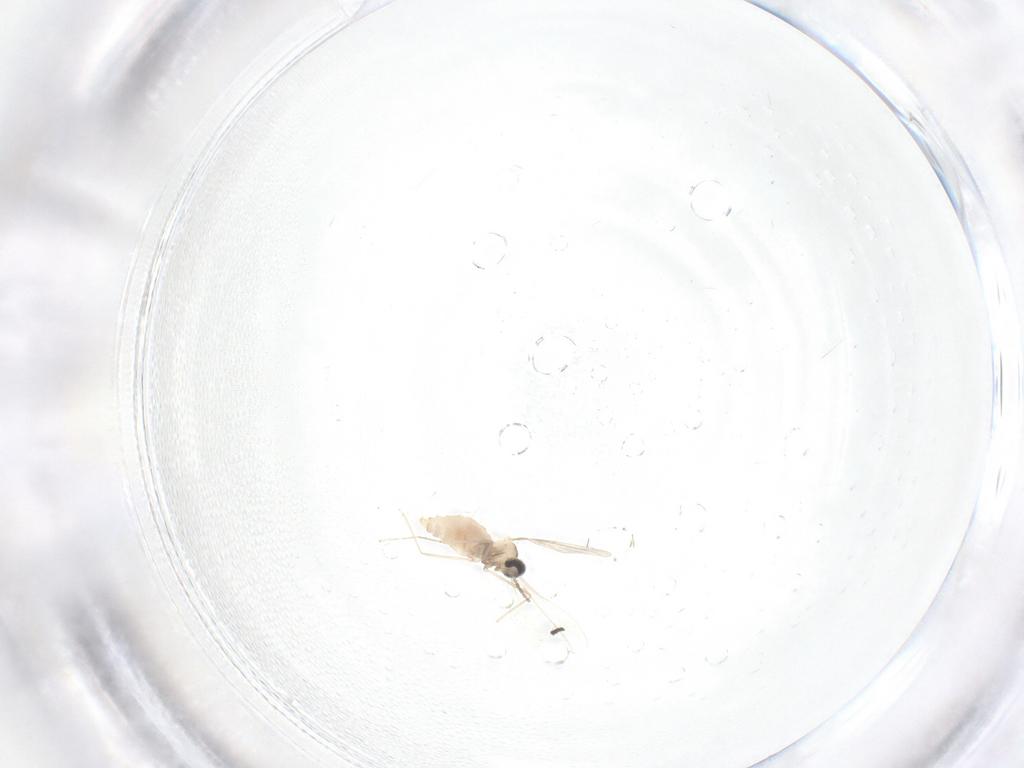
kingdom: Animalia
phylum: Arthropoda
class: Insecta
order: Diptera
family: Cecidomyiidae
